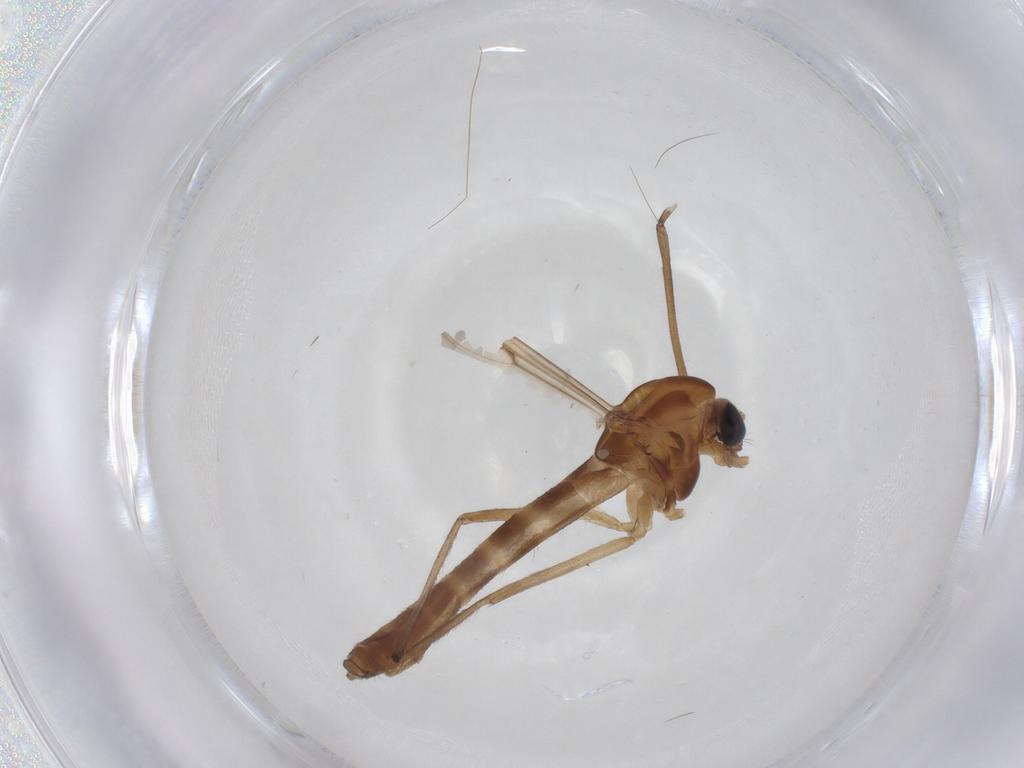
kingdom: Animalia
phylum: Arthropoda
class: Insecta
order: Diptera
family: Chironomidae
